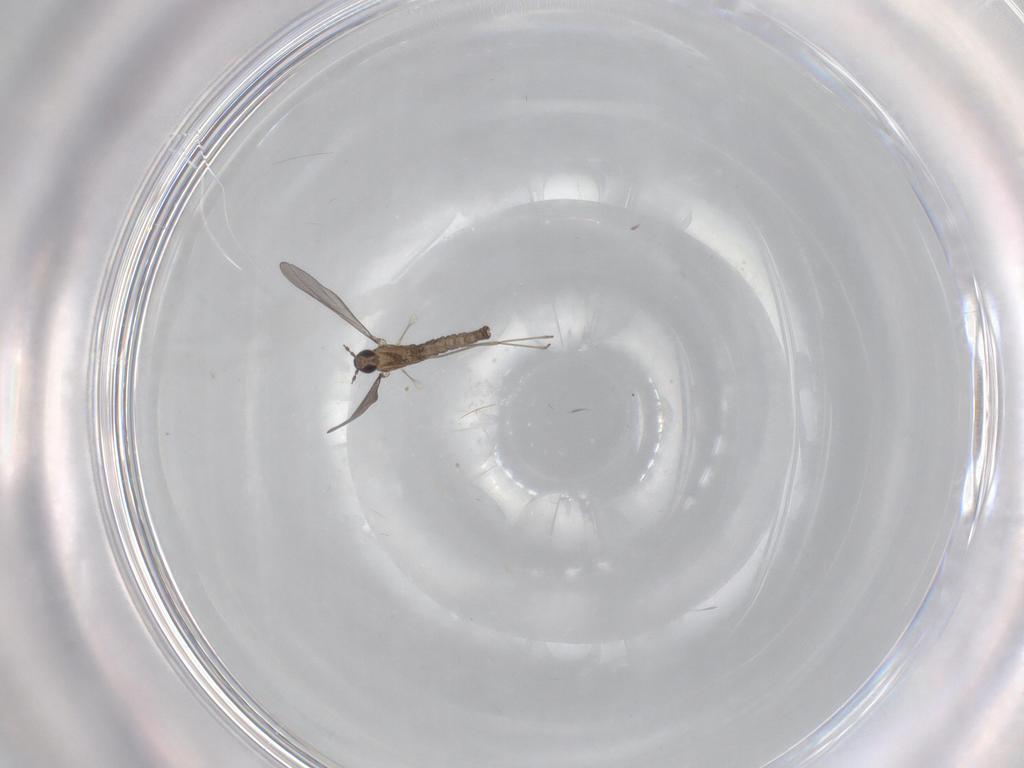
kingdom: Animalia
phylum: Arthropoda
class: Insecta
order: Diptera
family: Cecidomyiidae
